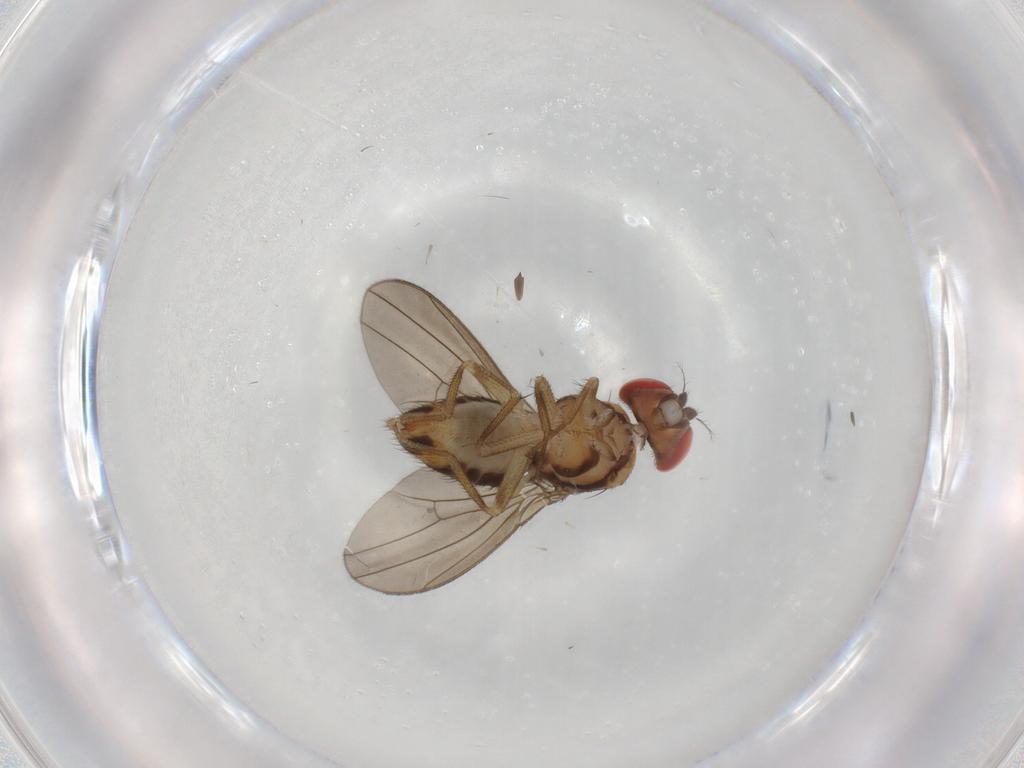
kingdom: Animalia
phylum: Arthropoda
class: Insecta
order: Diptera
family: Drosophilidae
